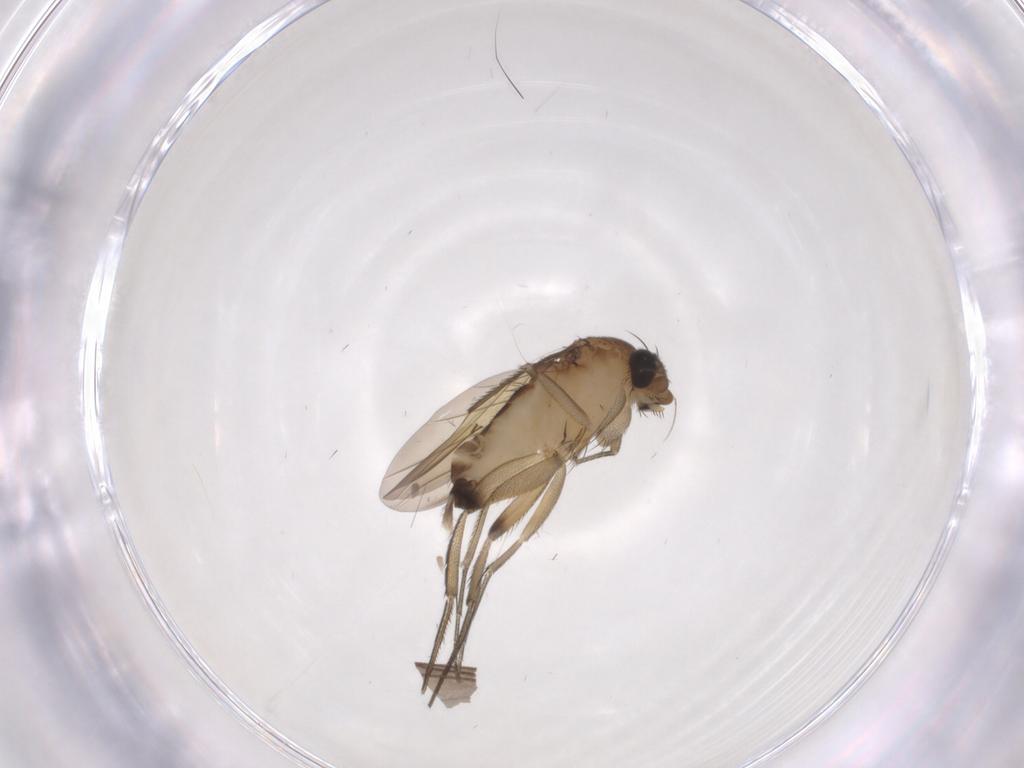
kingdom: Animalia
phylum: Arthropoda
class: Insecta
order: Diptera
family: Phoridae
